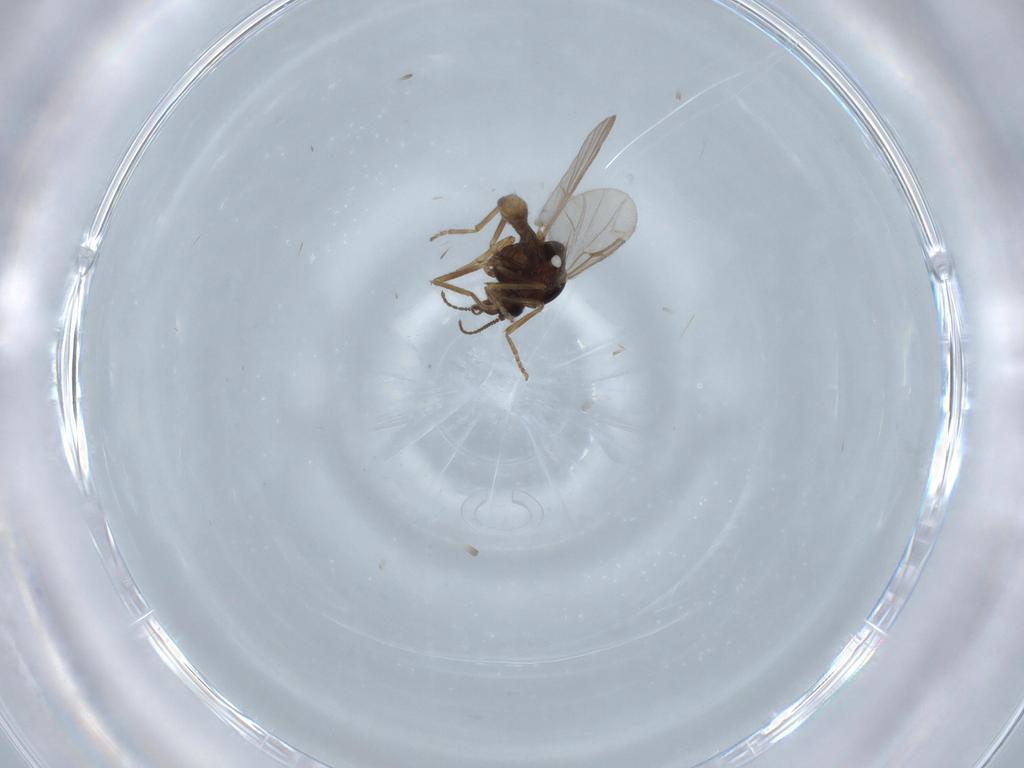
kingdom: Animalia
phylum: Arthropoda
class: Insecta
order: Diptera
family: Ceratopogonidae
